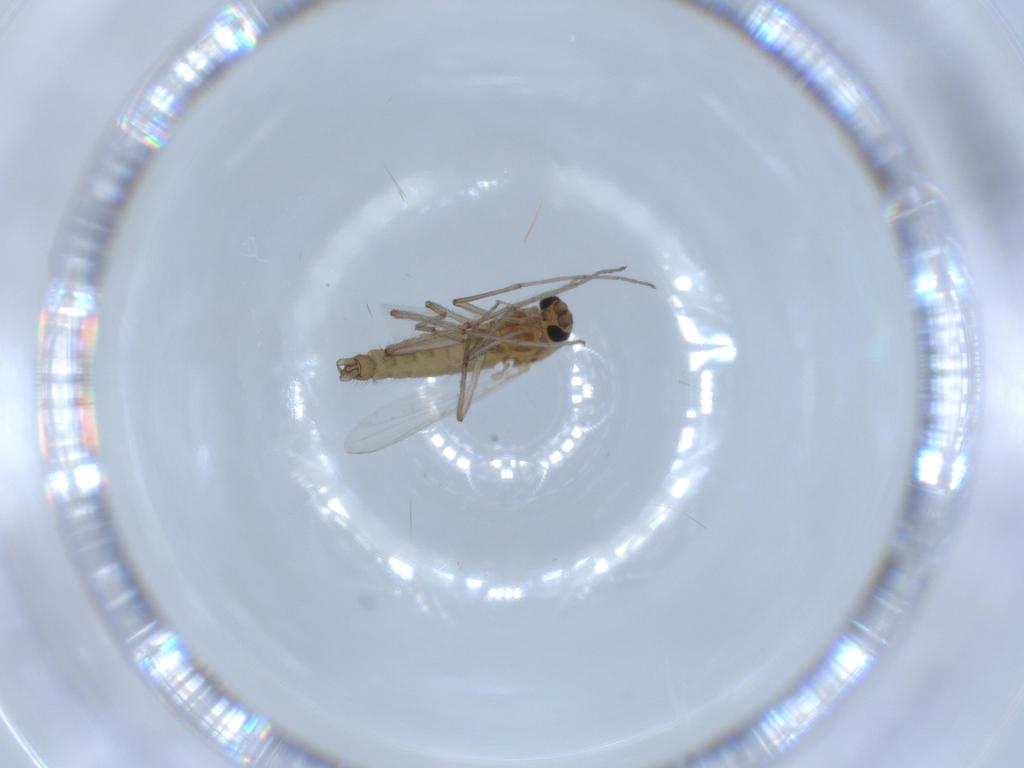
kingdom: Animalia
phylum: Arthropoda
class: Insecta
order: Diptera
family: Chironomidae
